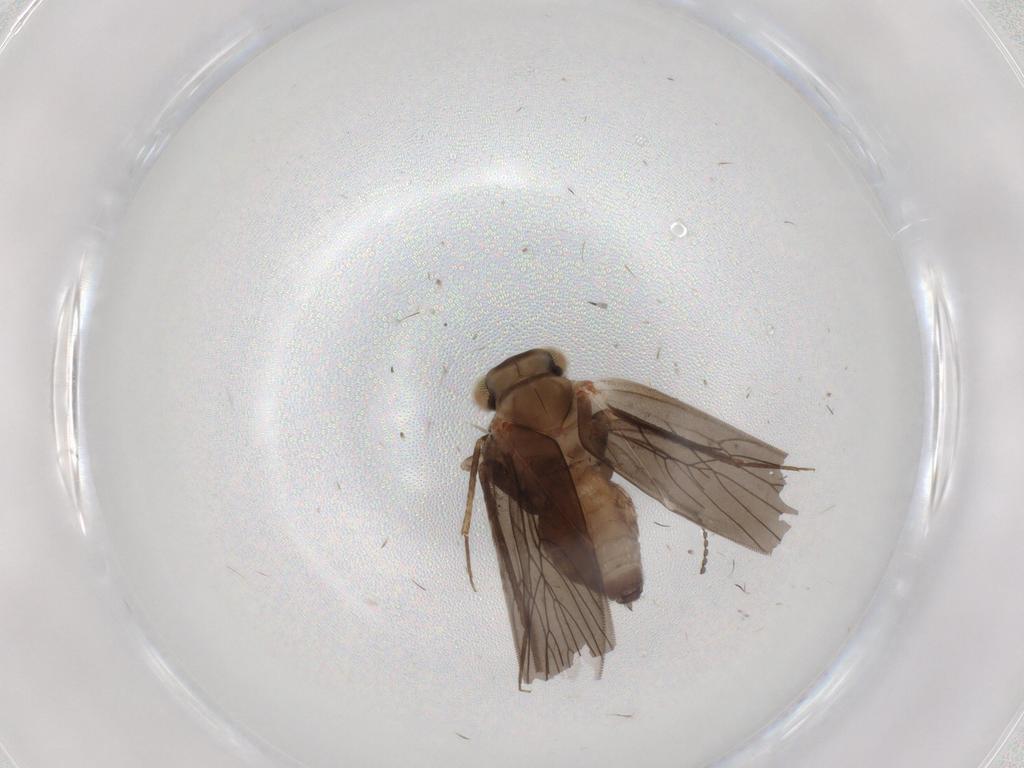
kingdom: Animalia
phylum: Arthropoda
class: Insecta
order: Psocodea
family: Lepidopsocidae
